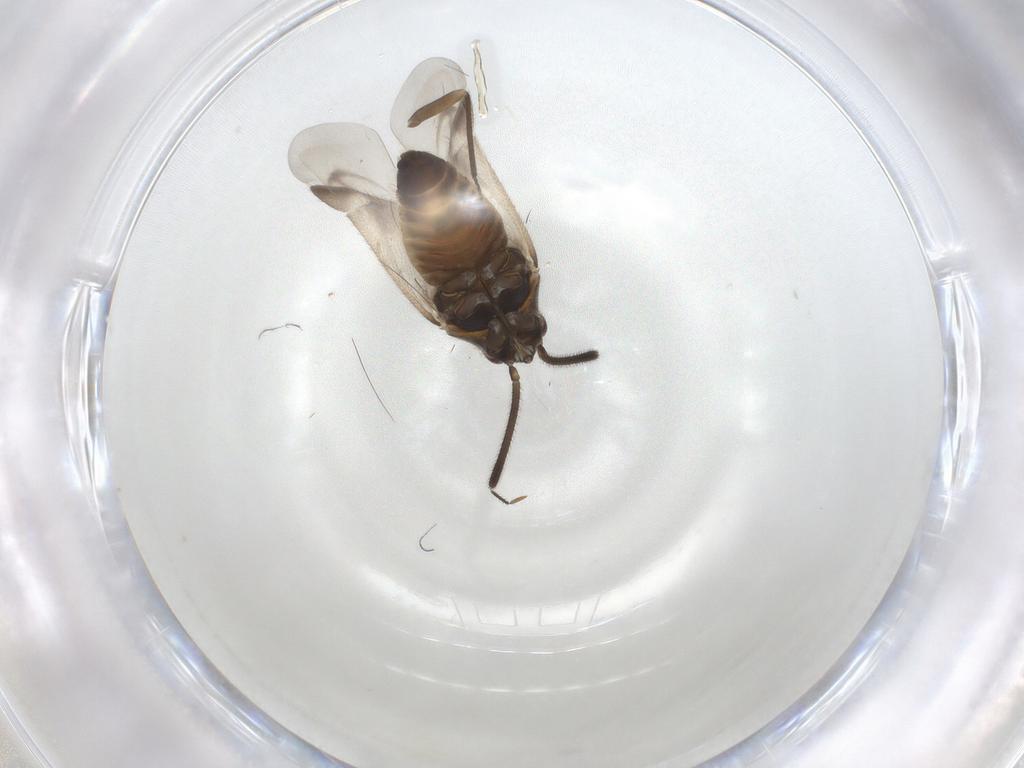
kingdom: Animalia
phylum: Arthropoda
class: Insecta
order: Hemiptera
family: Miridae
